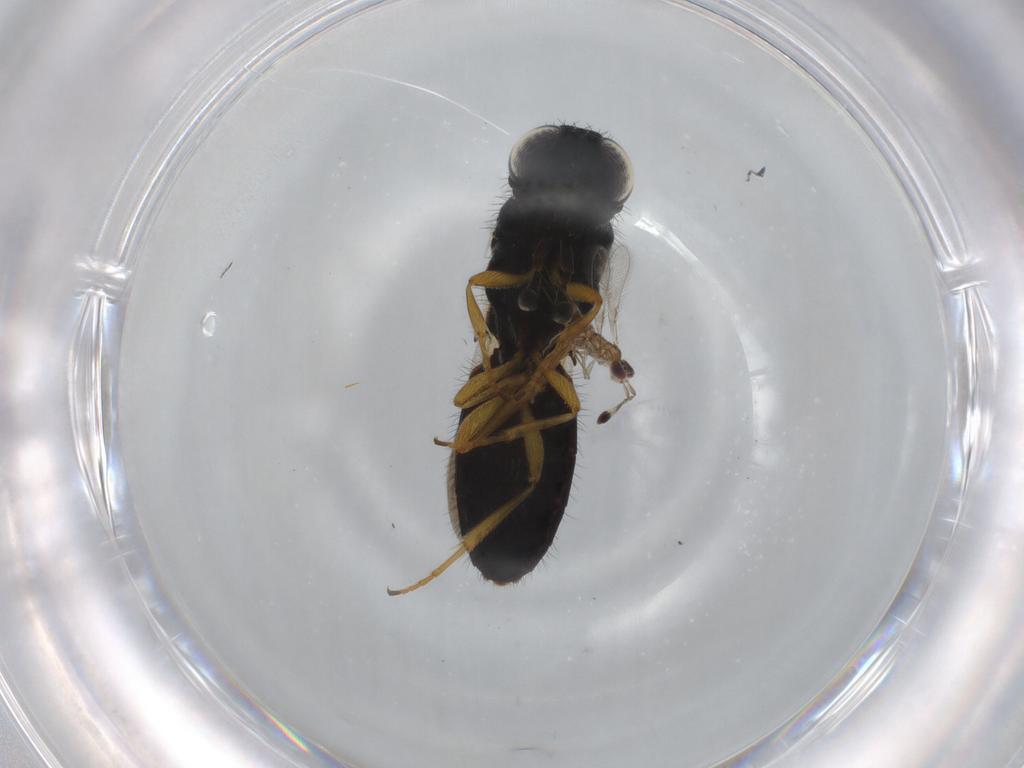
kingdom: Animalia
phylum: Arthropoda
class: Insecta
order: Hymenoptera
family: Mymaridae
